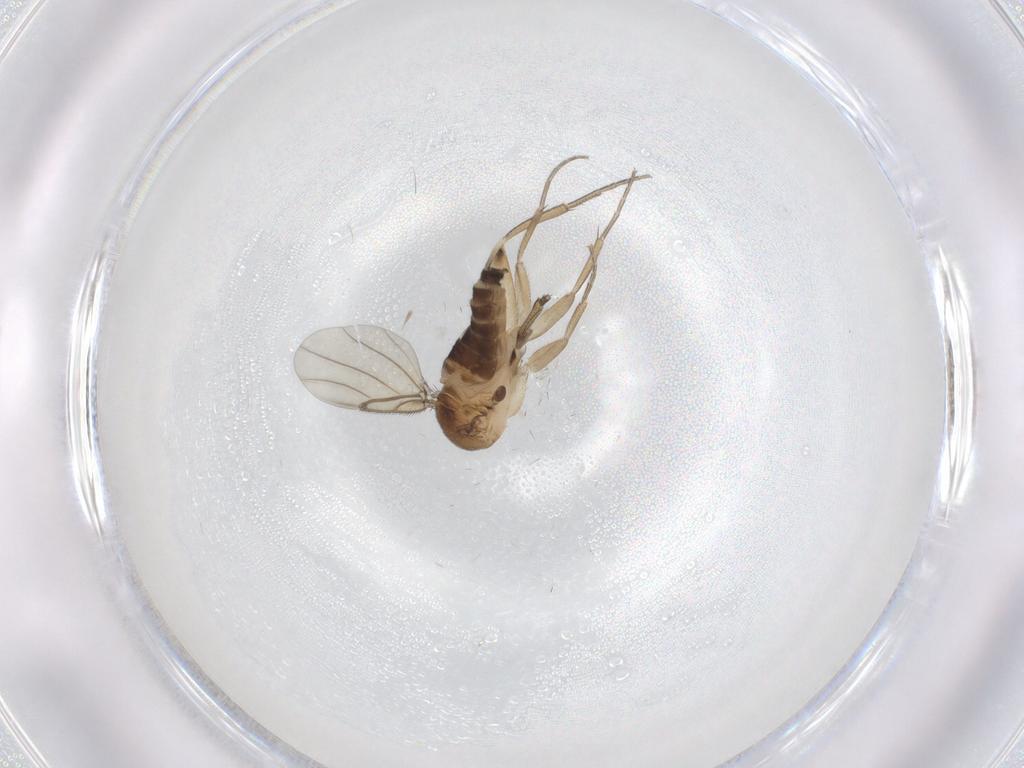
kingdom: Animalia
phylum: Arthropoda
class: Insecta
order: Diptera
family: Phoridae
